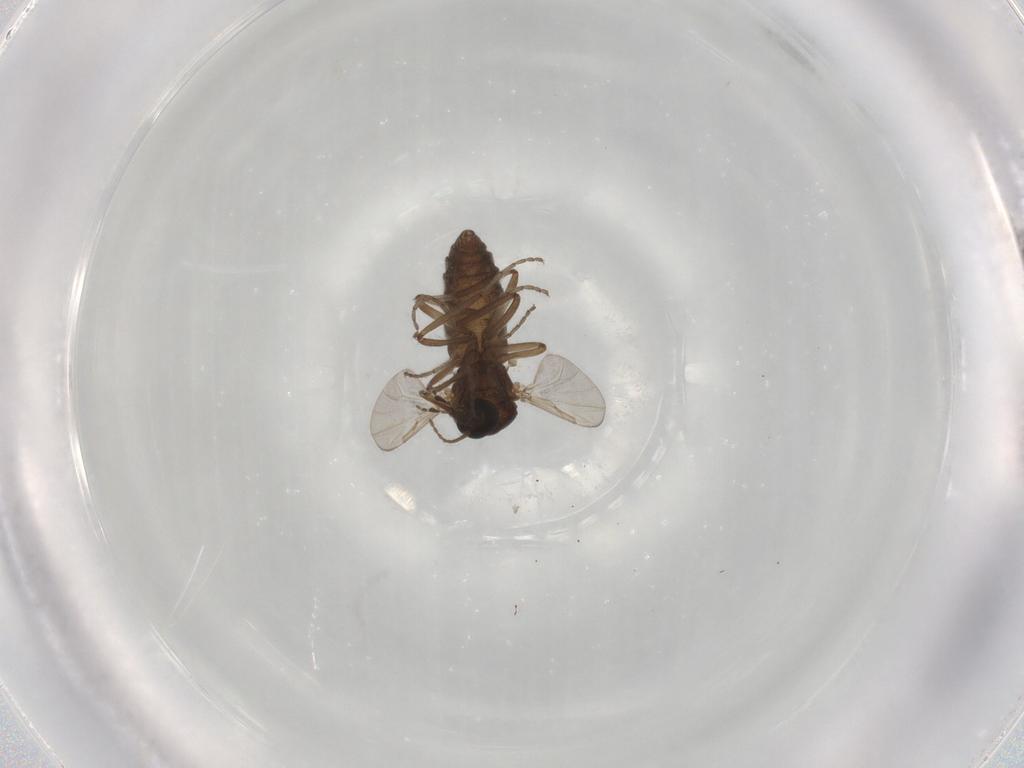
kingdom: Animalia
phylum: Arthropoda
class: Insecta
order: Diptera
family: Ceratopogonidae
